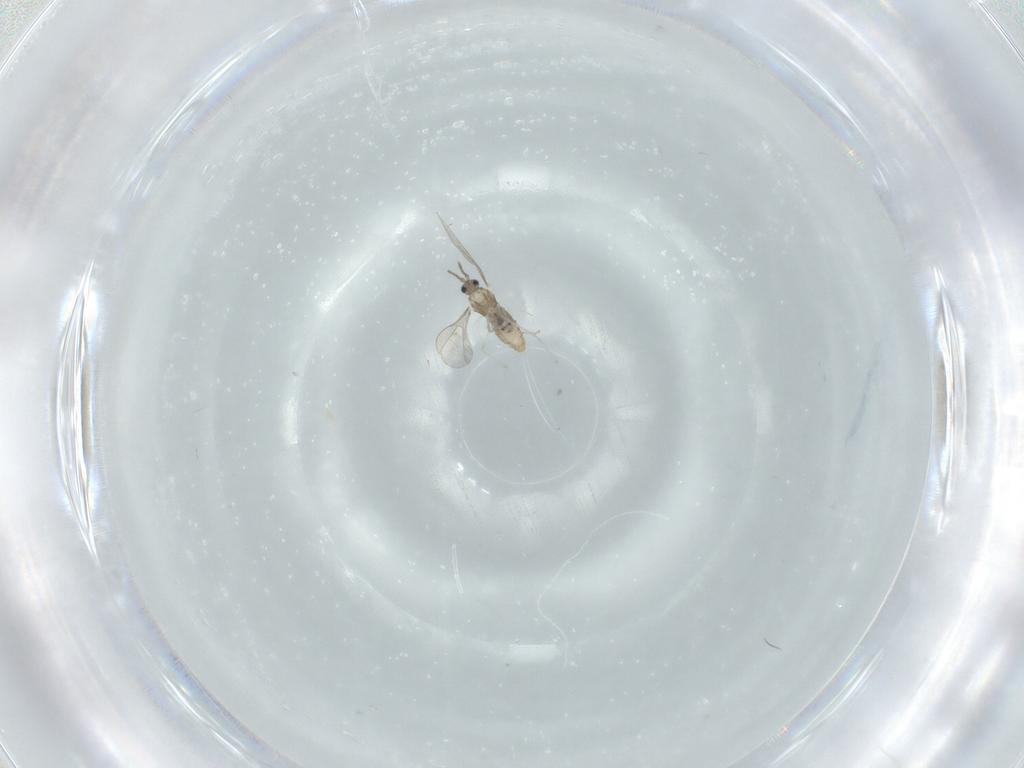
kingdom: Animalia
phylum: Arthropoda
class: Insecta
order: Diptera
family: Cecidomyiidae
